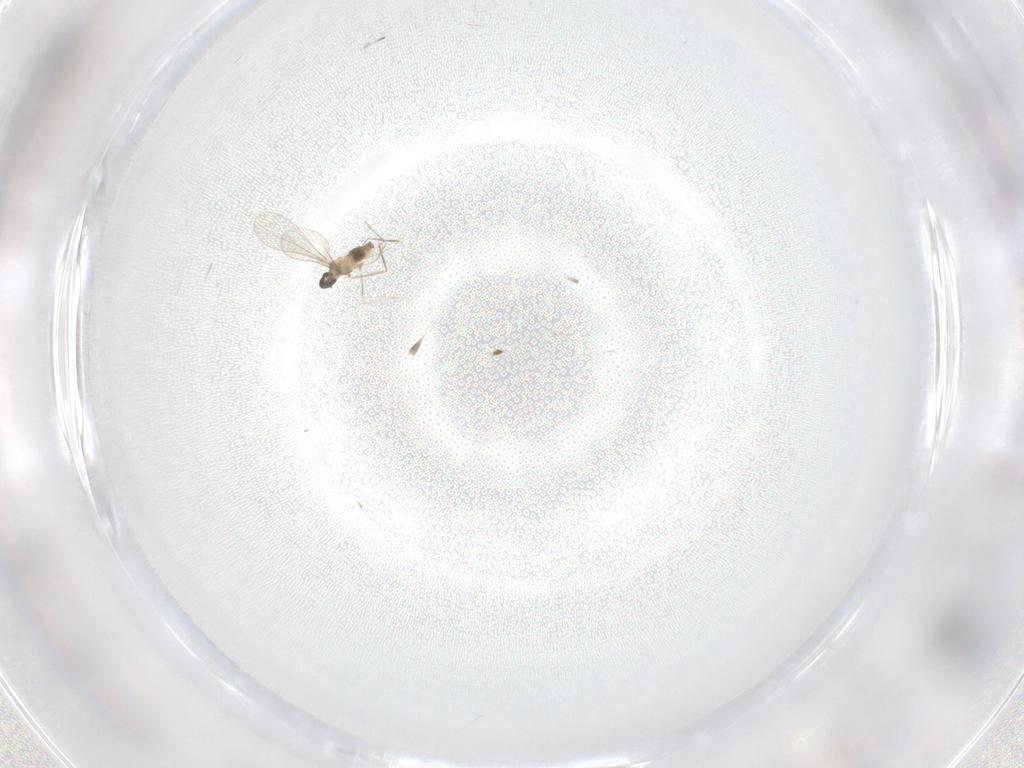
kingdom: Animalia
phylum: Arthropoda
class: Insecta
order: Diptera
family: Cecidomyiidae
